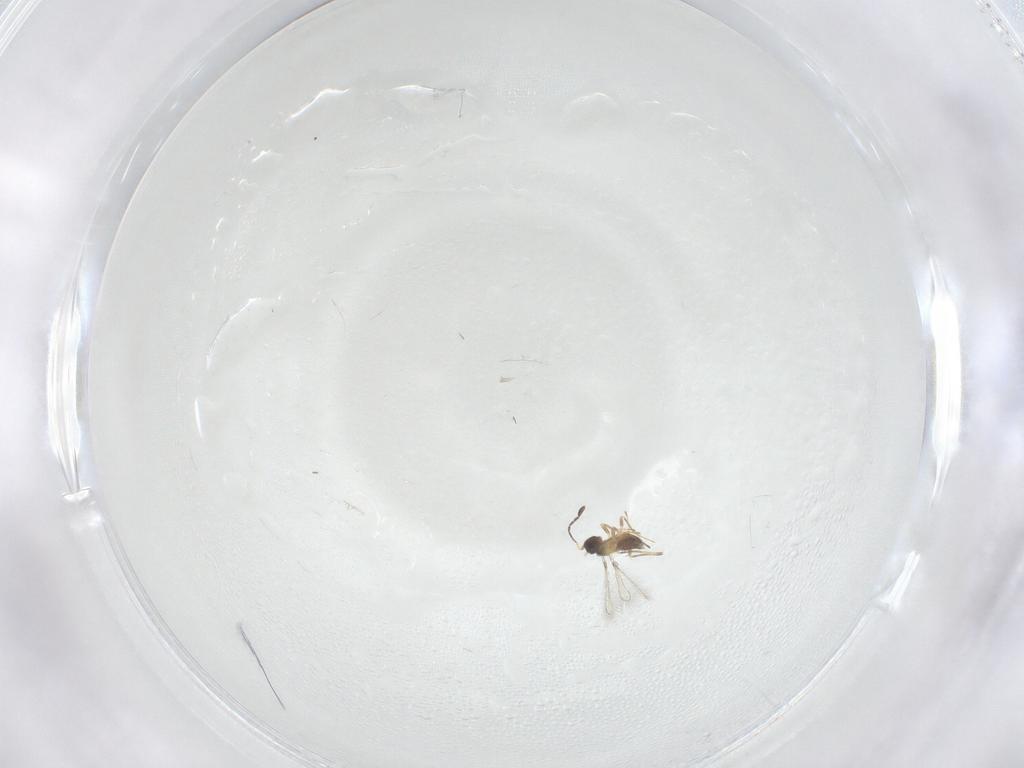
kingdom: Animalia
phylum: Arthropoda
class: Insecta
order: Hymenoptera
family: Mymaridae
